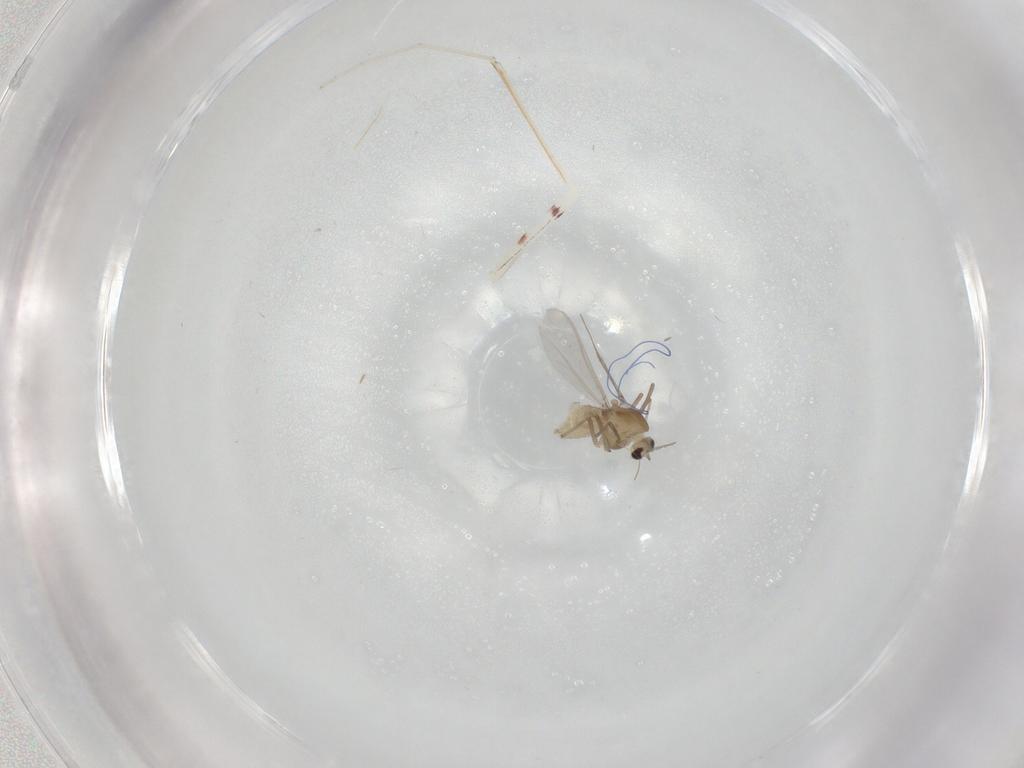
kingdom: Animalia
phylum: Arthropoda
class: Insecta
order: Diptera
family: Chironomidae
